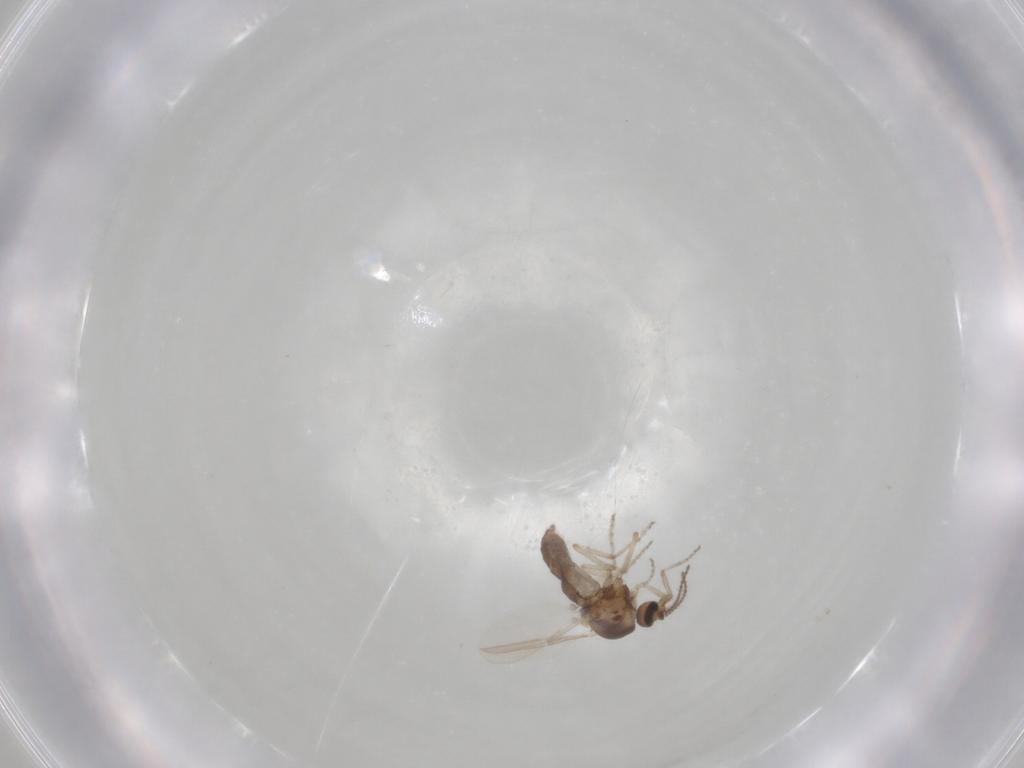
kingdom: Animalia
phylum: Arthropoda
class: Insecta
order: Diptera
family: Ceratopogonidae
